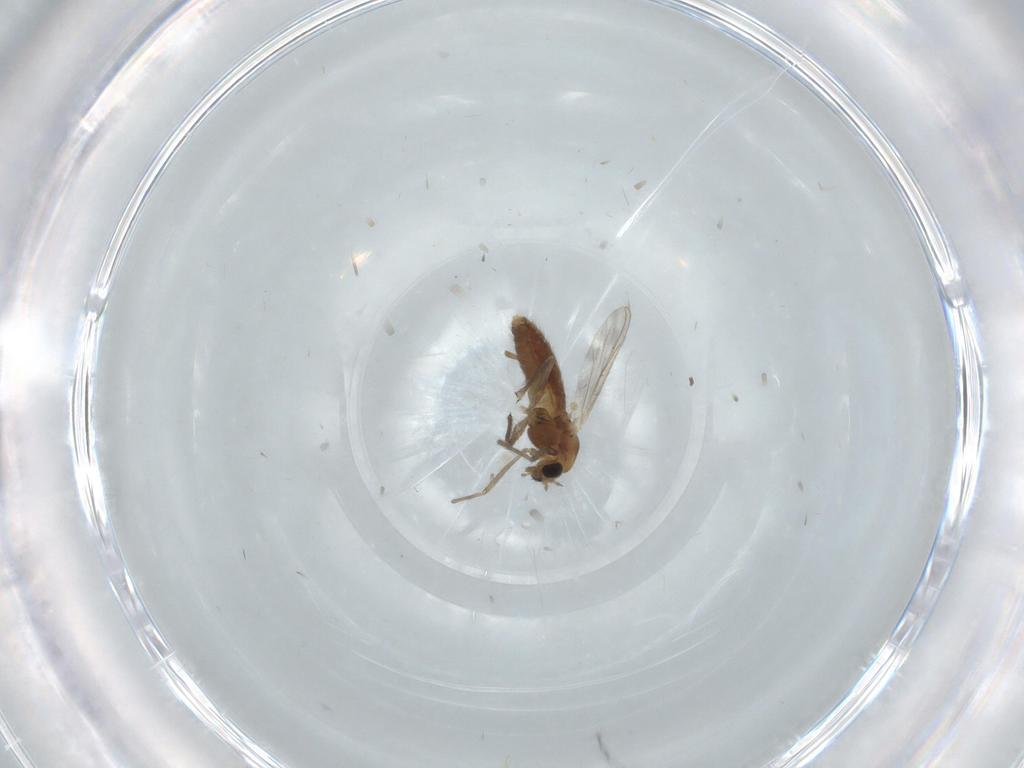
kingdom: Animalia
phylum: Arthropoda
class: Insecta
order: Diptera
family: Chironomidae
